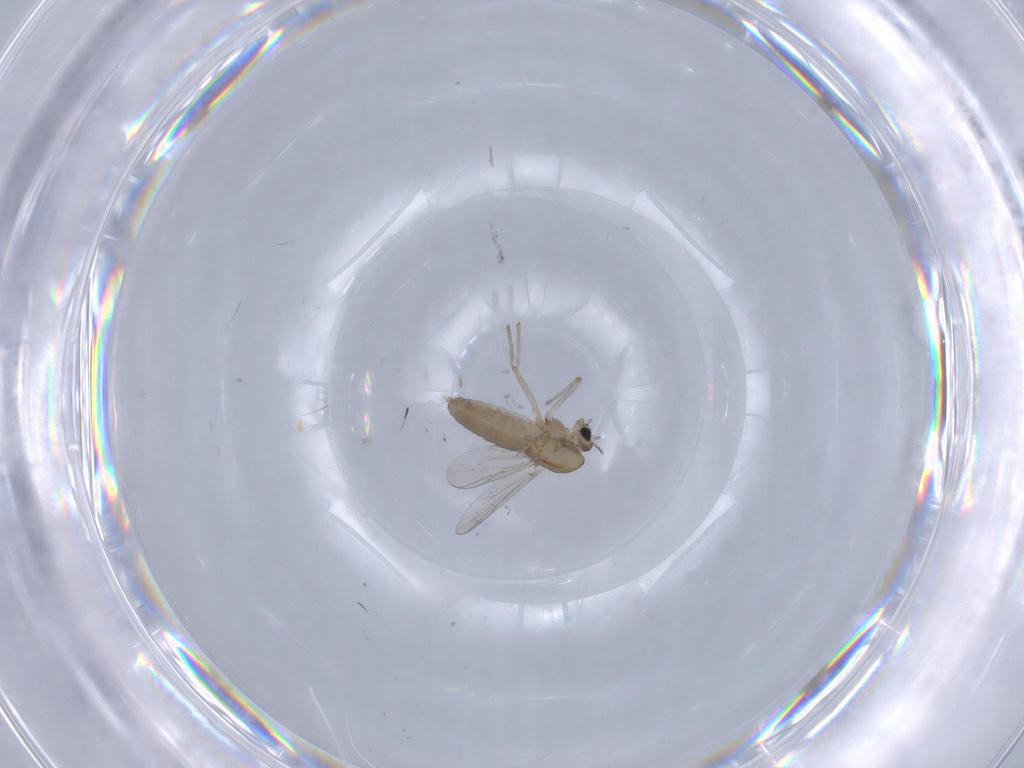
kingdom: Animalia
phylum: Arthropoda
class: Insecta
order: Diptera
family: Chironomidae
